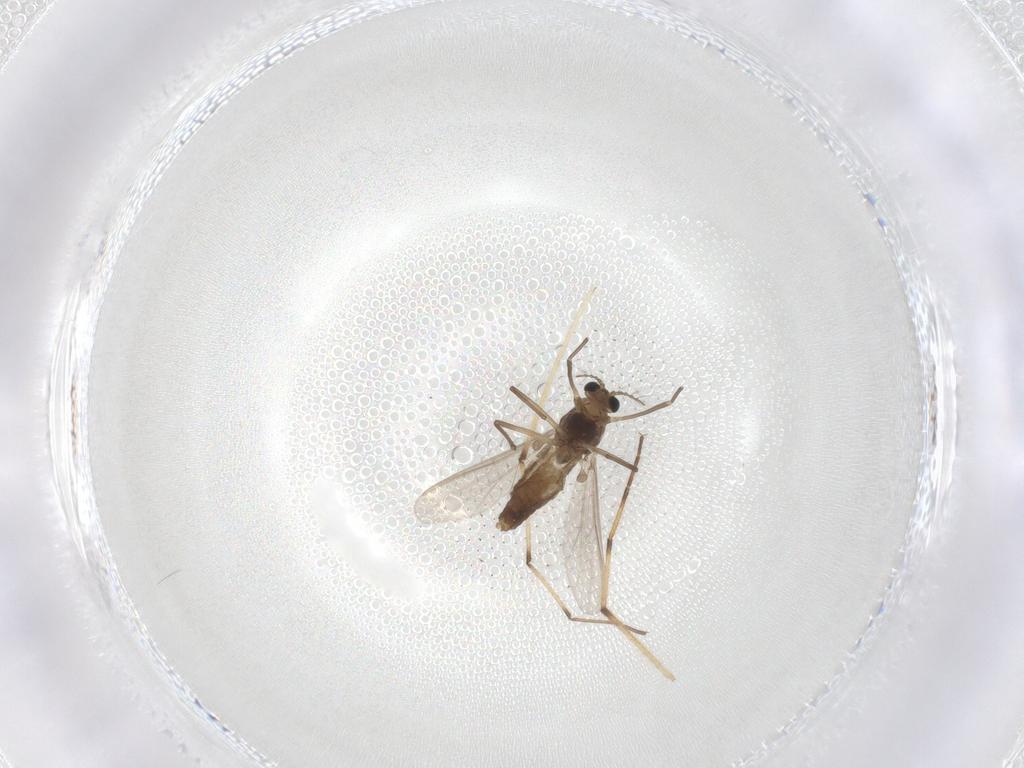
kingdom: Animalia
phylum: Arthropoda
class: Insecta
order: Diptera
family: Chironomidae
